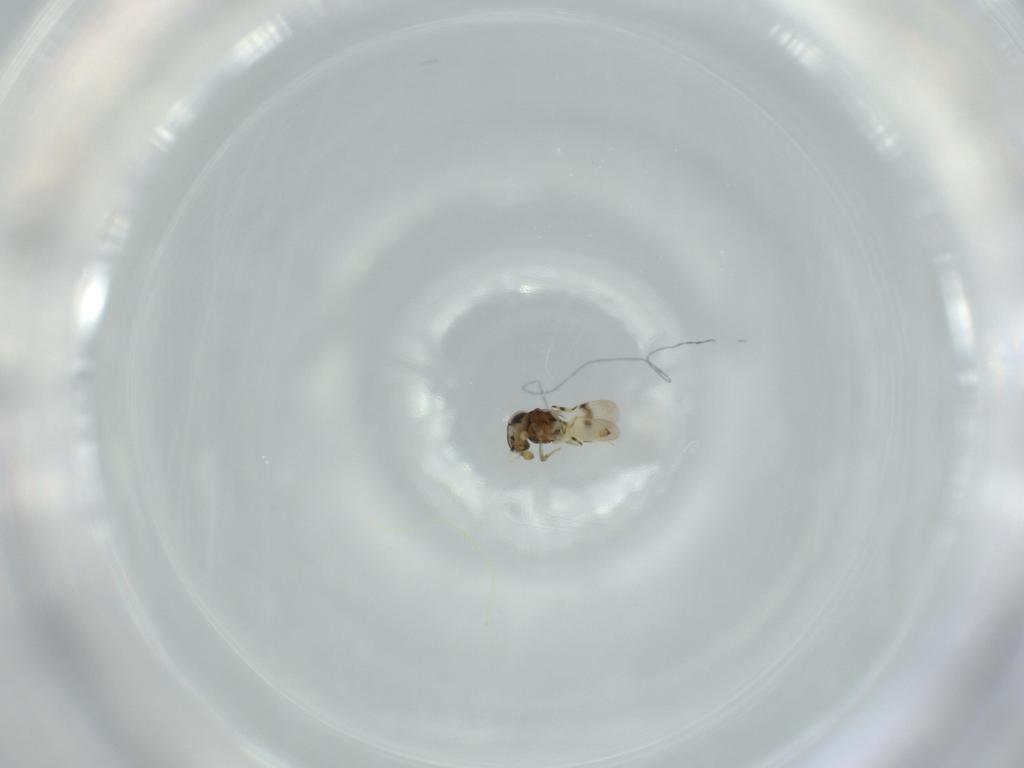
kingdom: Animalia
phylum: Arthropoda
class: Insecta
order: Hymenoptera
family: Scelionidae
